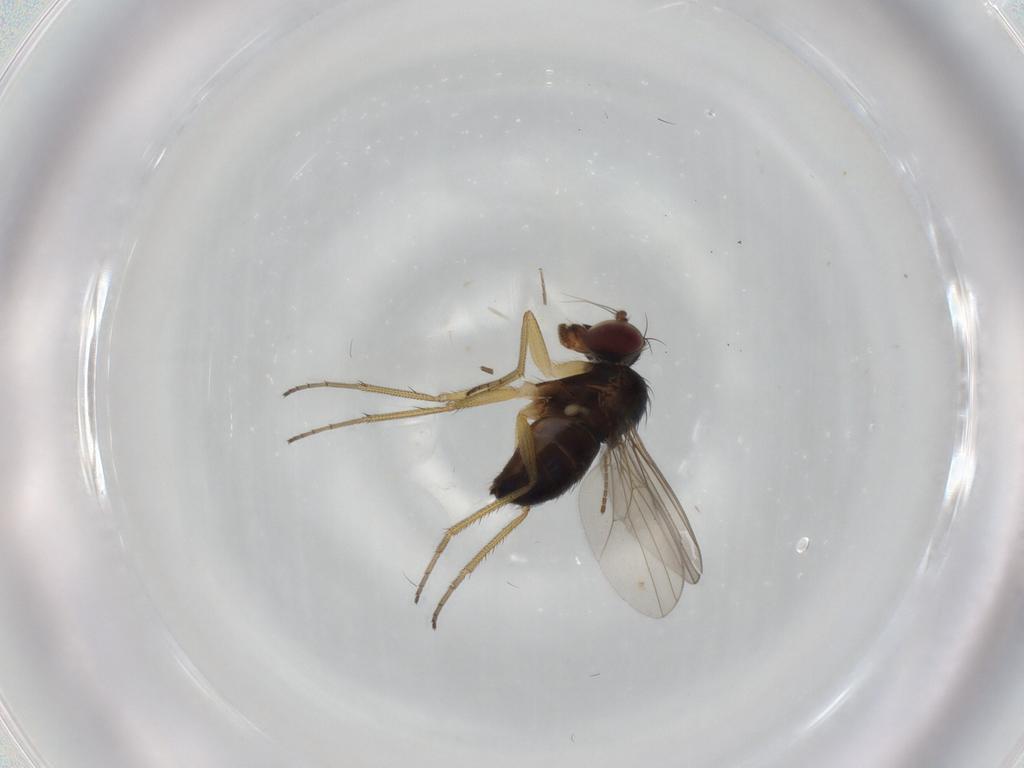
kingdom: Animalia
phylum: Arthropoda
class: Insecta
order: Diptera
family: Dolichopodidae
